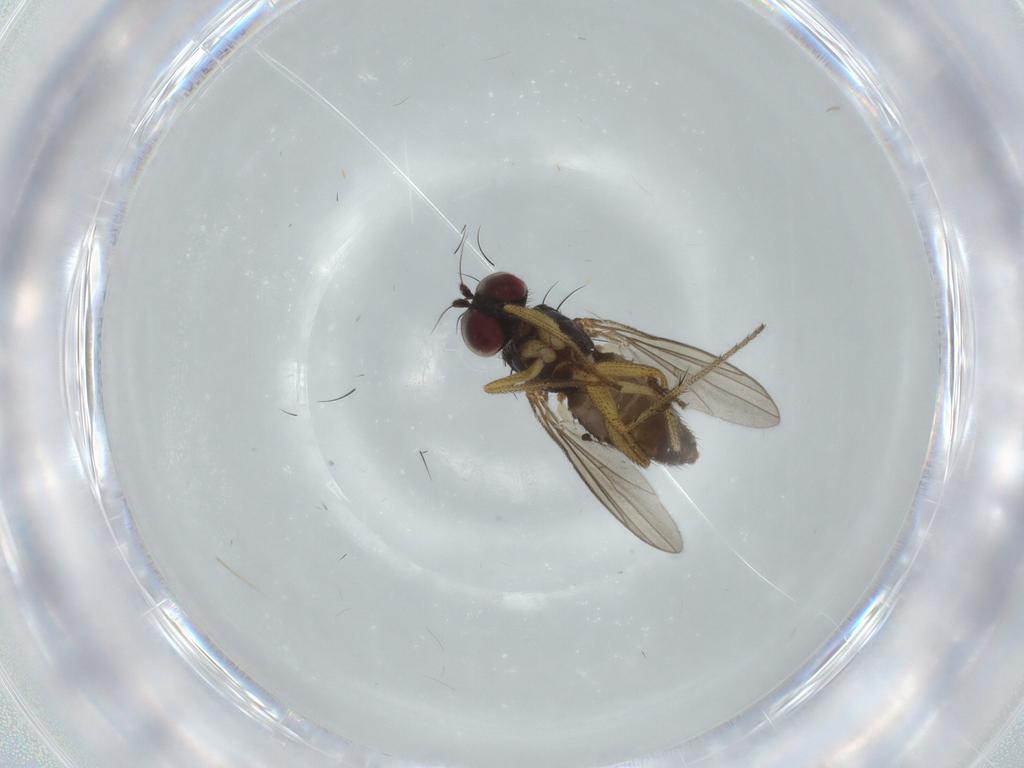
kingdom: Animalia
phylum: Arthropoda
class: Insecta
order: Diptera
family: Sciaridae
